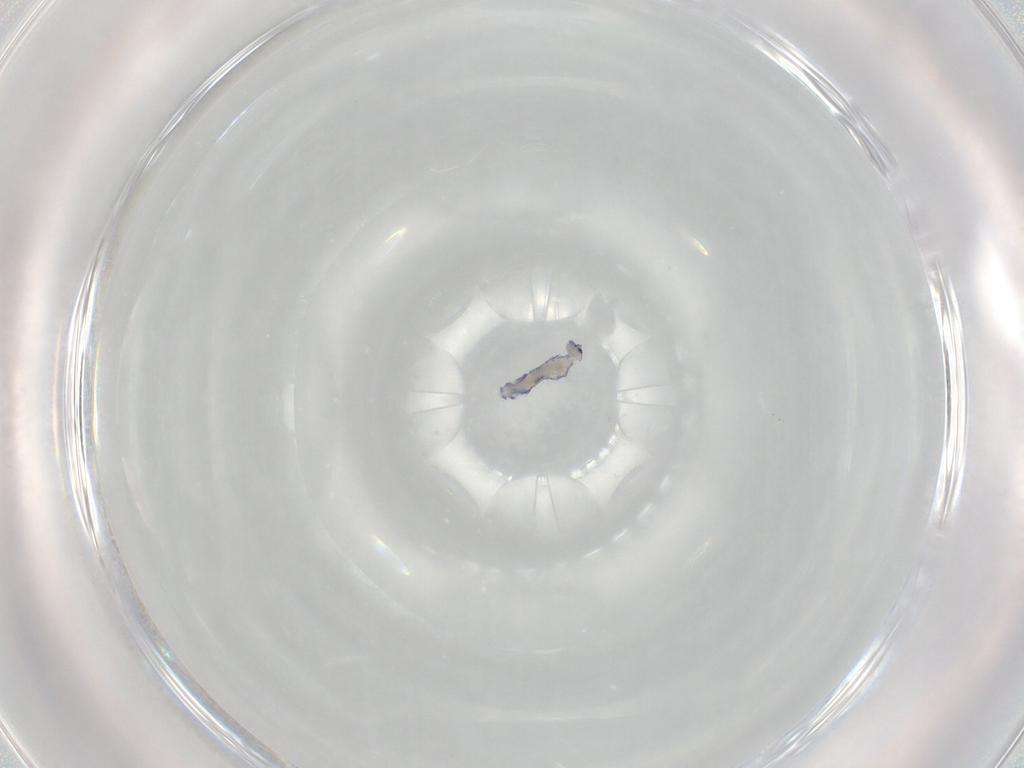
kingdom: Animalia
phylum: Arthropoda
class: Collembola
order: Entomobryomorpha
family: Entomobryidae
